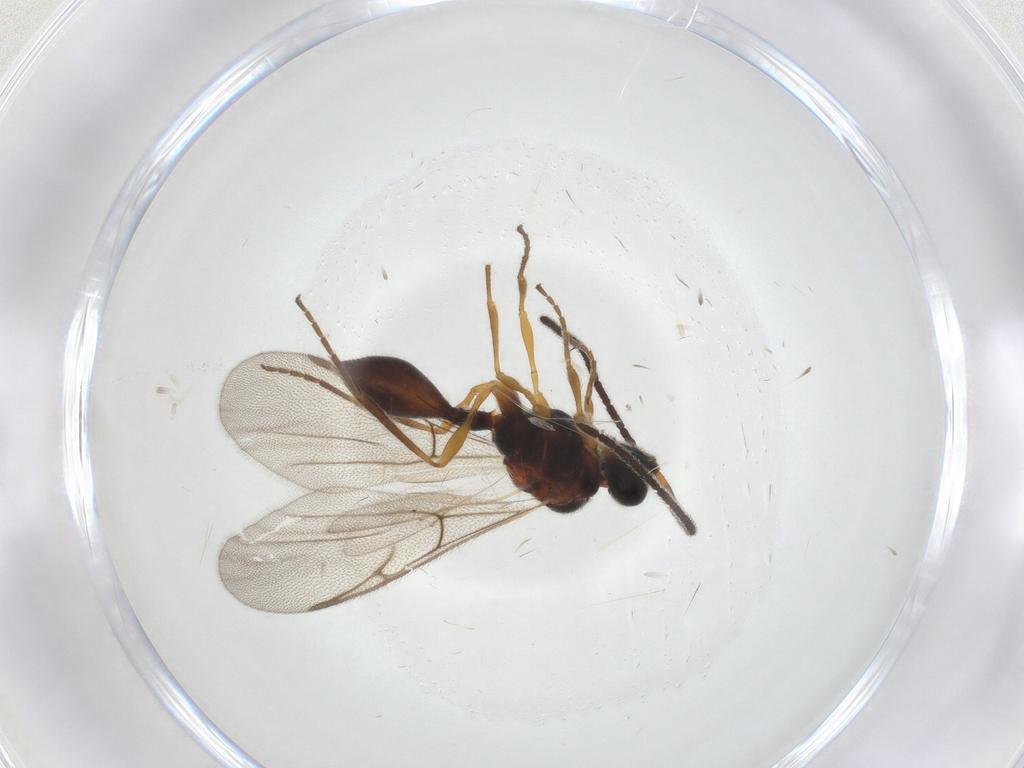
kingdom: Animalia
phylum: Arthropoda
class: Insecta
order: Hymenoptera
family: Diapriidae
